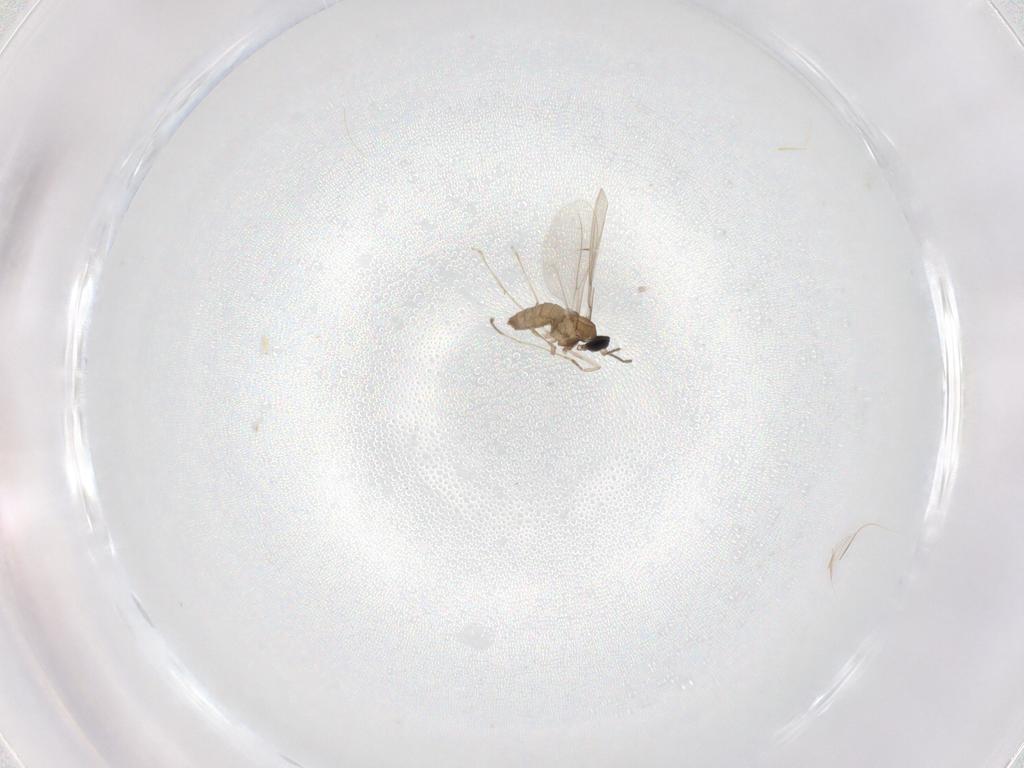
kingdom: Animalia
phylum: Arthropoda
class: Insecta
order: Diptera
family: Cecidomyiidae
